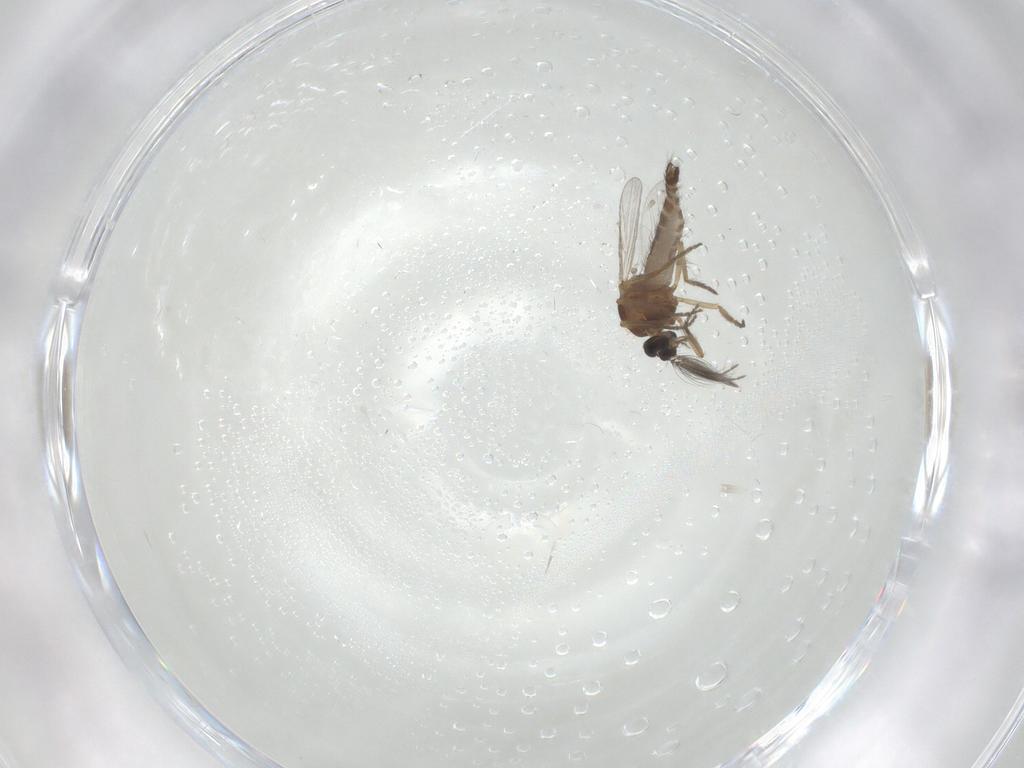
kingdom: Animalia
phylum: Arthropoda
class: Insecta
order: Diptera
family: Ceratopogonidae
